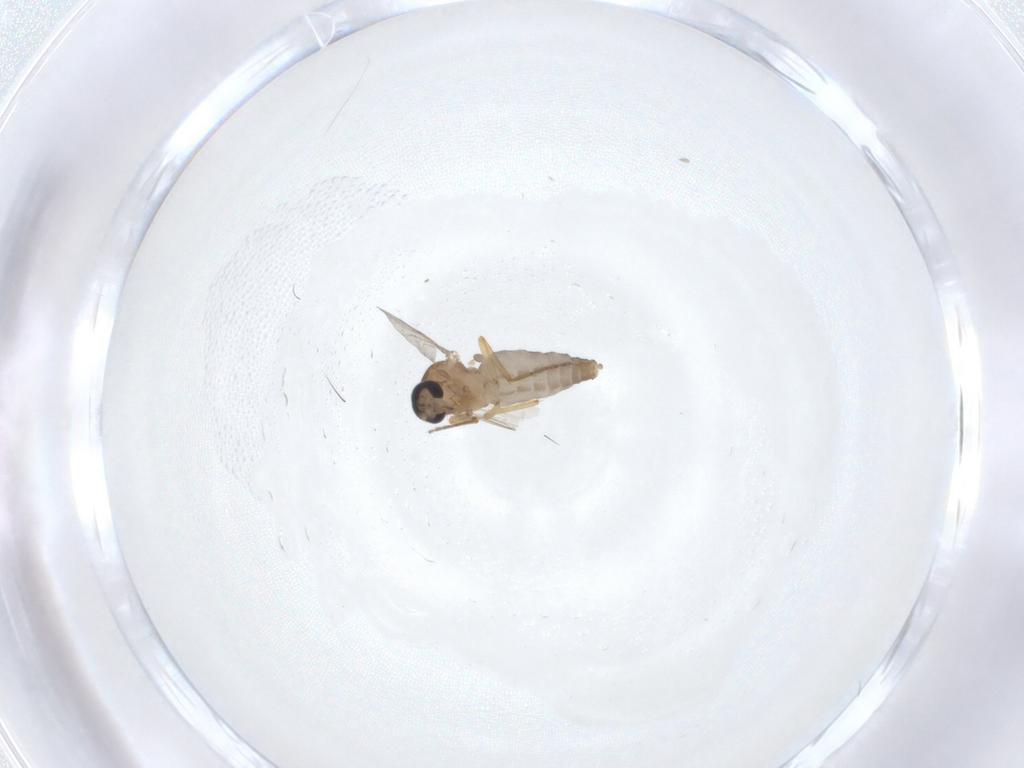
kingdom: Animalia
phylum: Arthropoda
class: Insecta
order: Diptera
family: Ceratopogonidae
